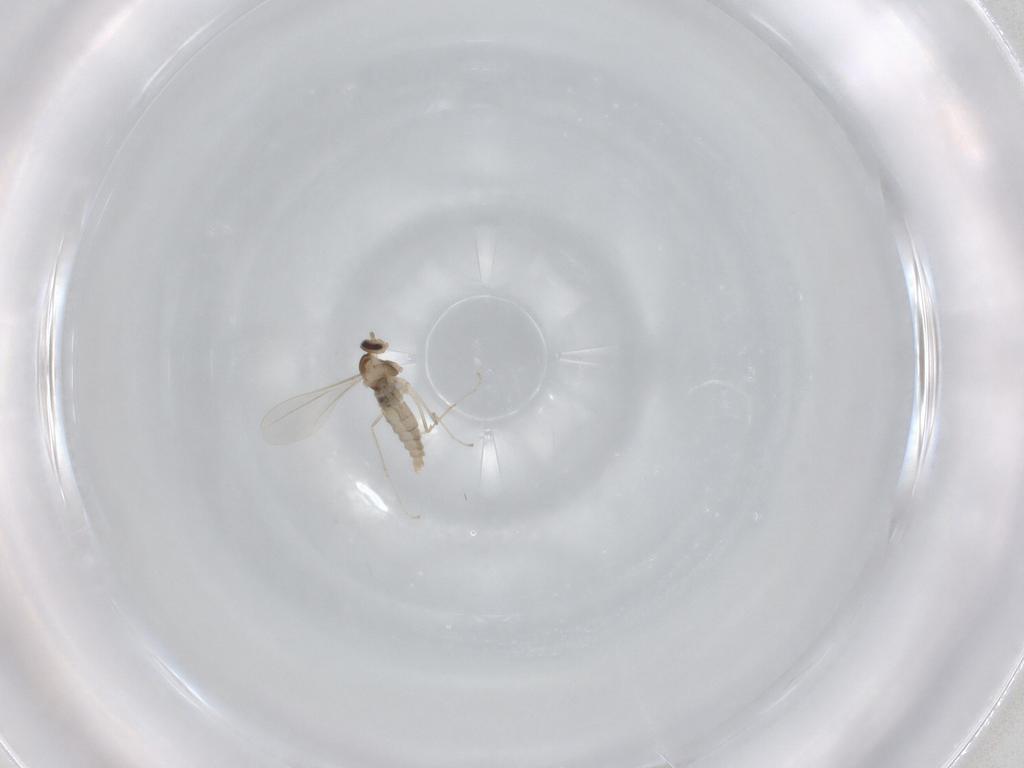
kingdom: Animalia
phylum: Arthropoda
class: Insecta
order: Diptera
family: Cecidomyiidae
